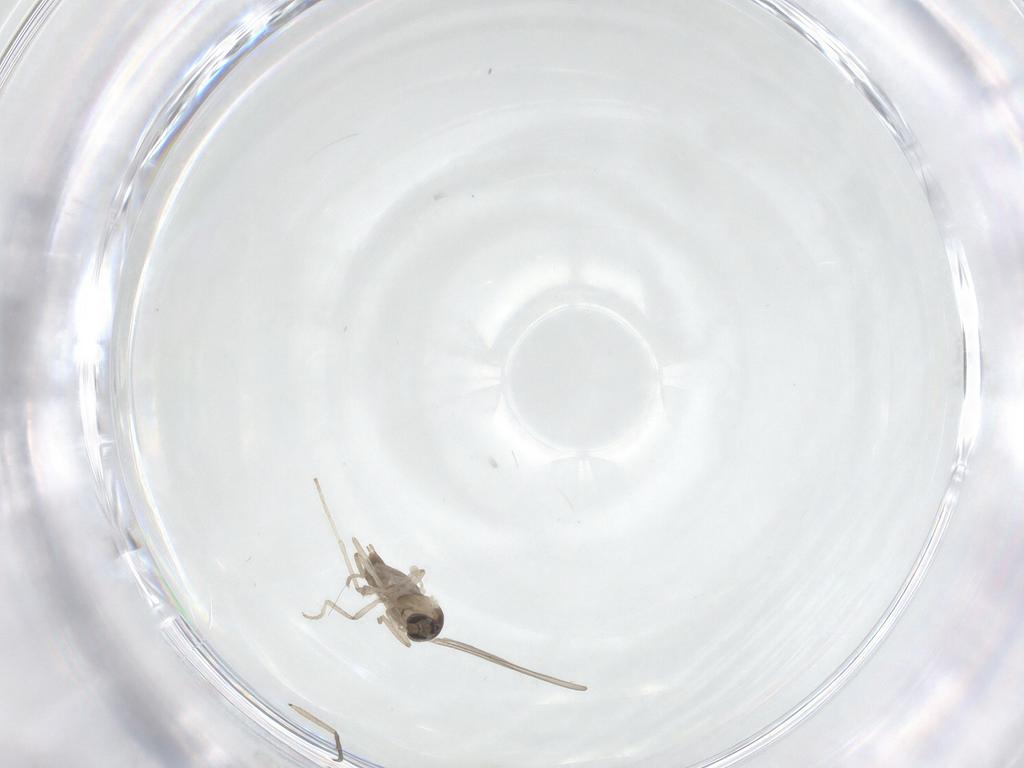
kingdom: Animalia
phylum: Arthropoda
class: Insecta
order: Diptera
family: Cecidomyiidae
